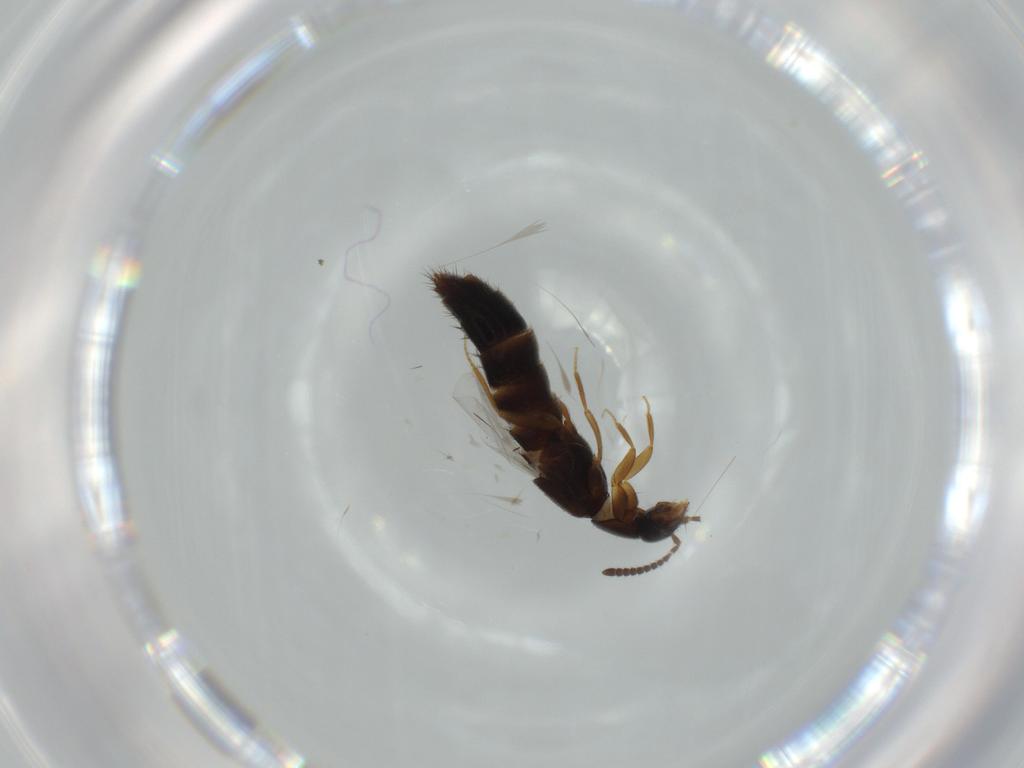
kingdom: Animalia
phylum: Arthropoda
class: Insecta
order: Coleoptera
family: Coccinellidae
